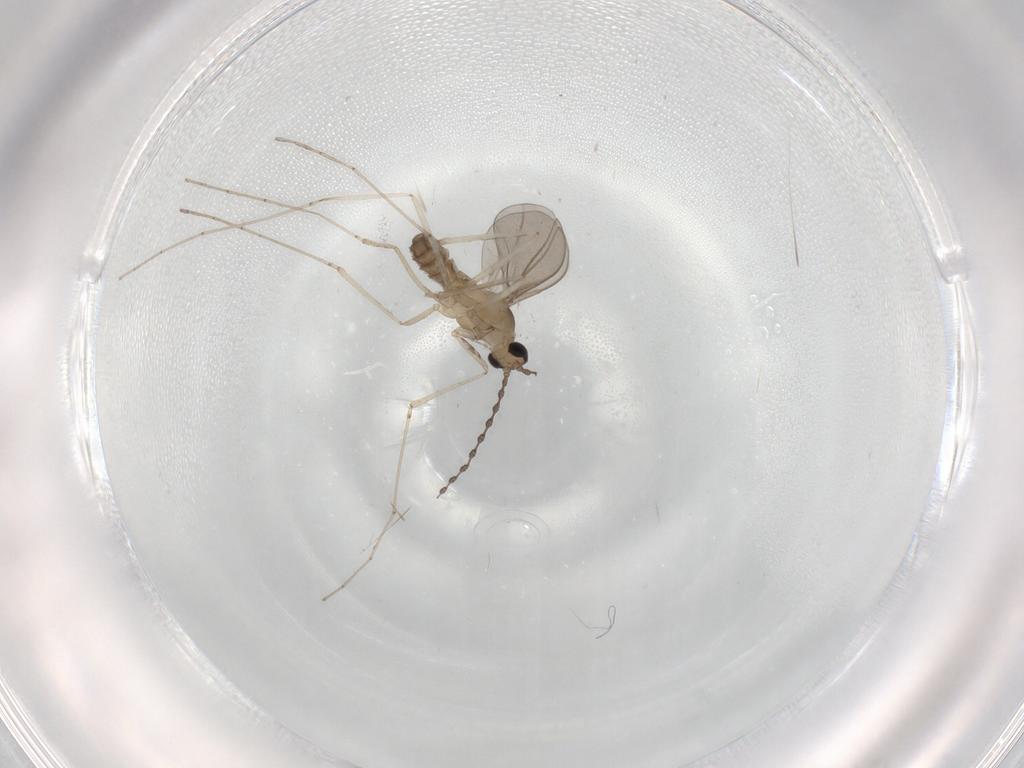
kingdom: Animalia
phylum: Arthropoda
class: Insecta
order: Diptera
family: Cecidomyiidae
